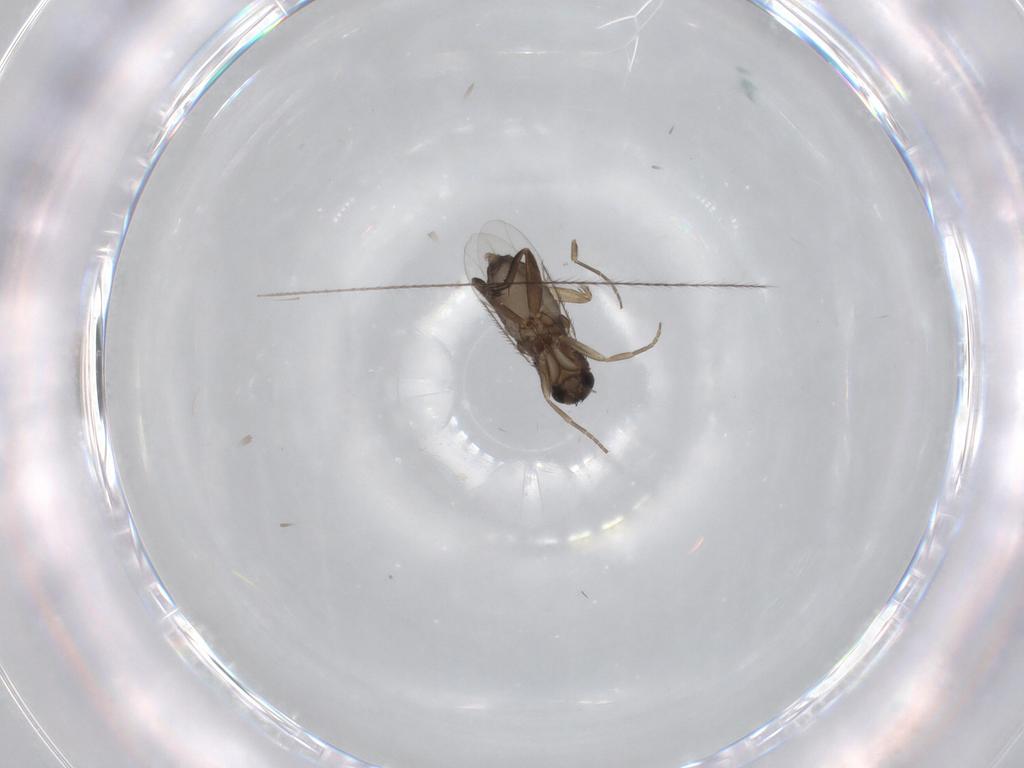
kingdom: Animalia
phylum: Arthropoda
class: Insecta
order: Diptera
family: Phoridae
